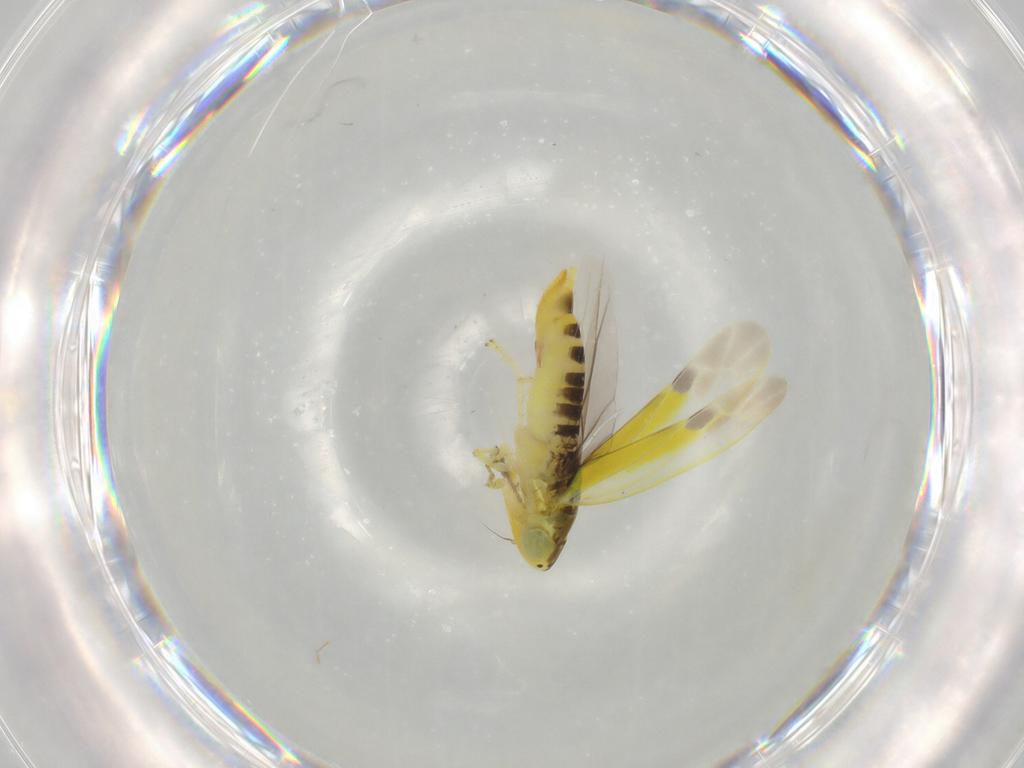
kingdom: Animalia
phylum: Arthropoda
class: Insecta
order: Hemiptera
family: Cicadellidae
